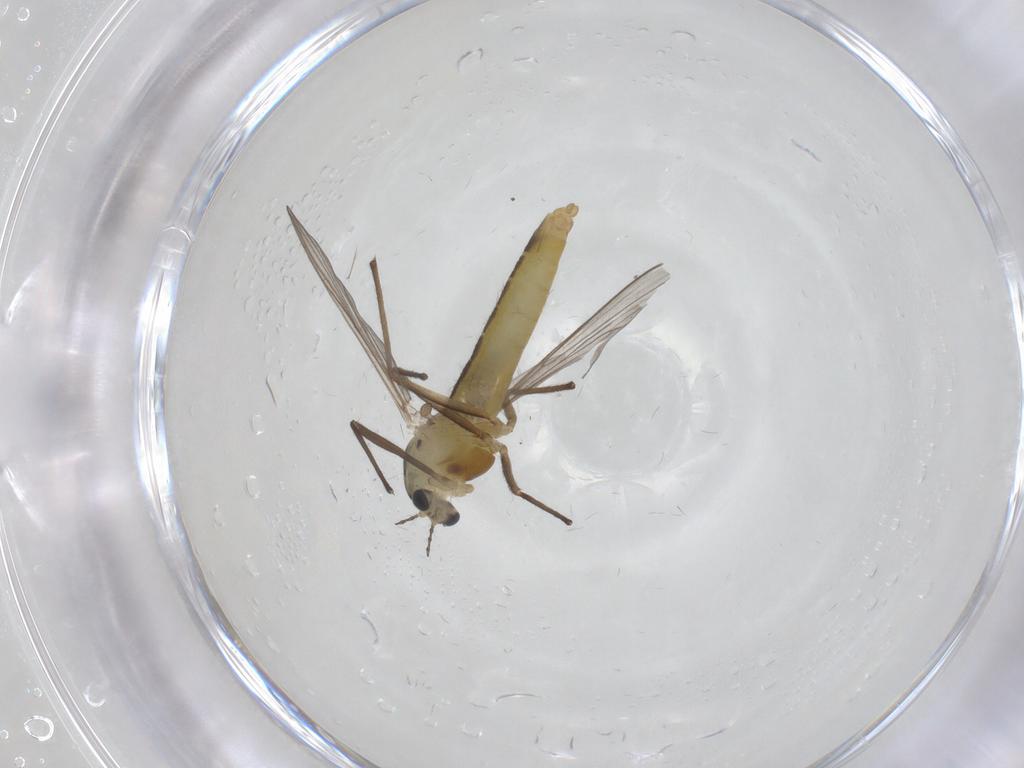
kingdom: Animalia
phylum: Arthropoda
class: Insecta
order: Diptera
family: Chironomidae
